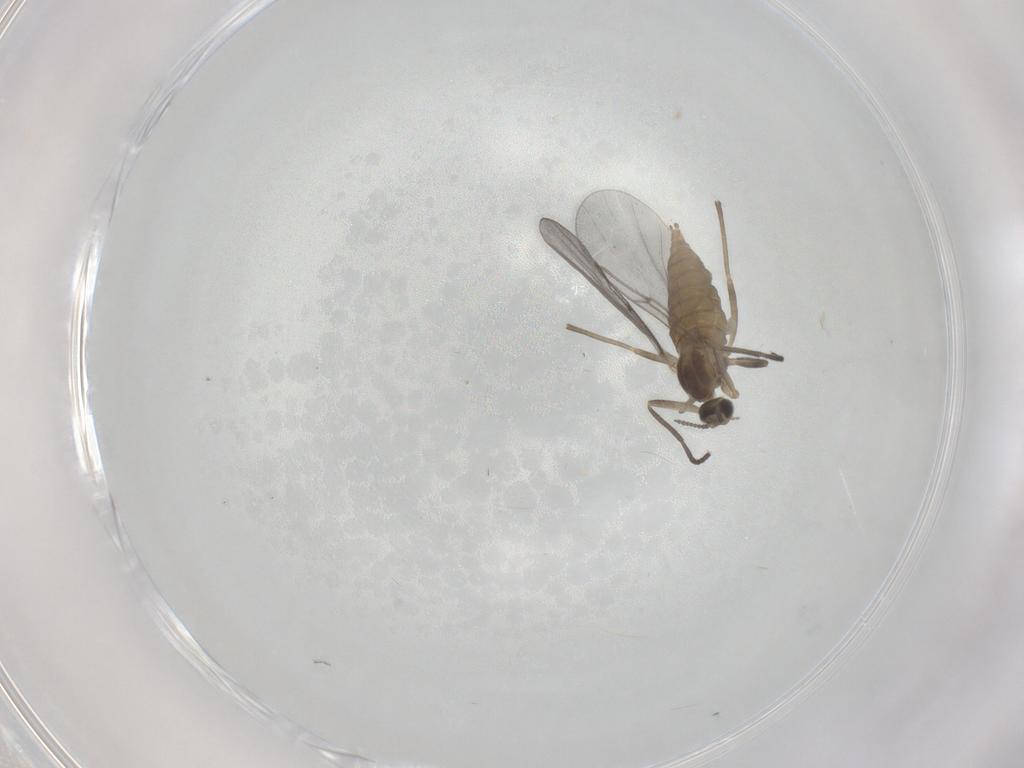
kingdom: Animalia
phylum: Arthropoda
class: Insecta
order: Diptera
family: Cecidomyiidae
